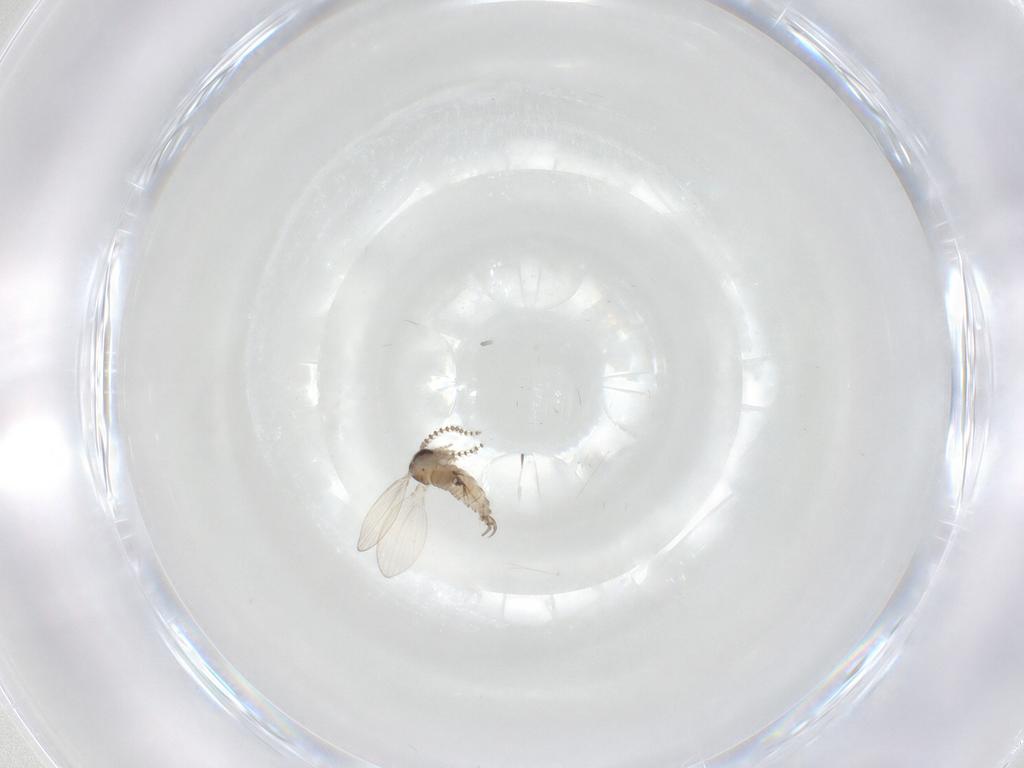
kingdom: Animalia
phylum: Arthropoda
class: Insecta
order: Diptera
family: Psychodidae
